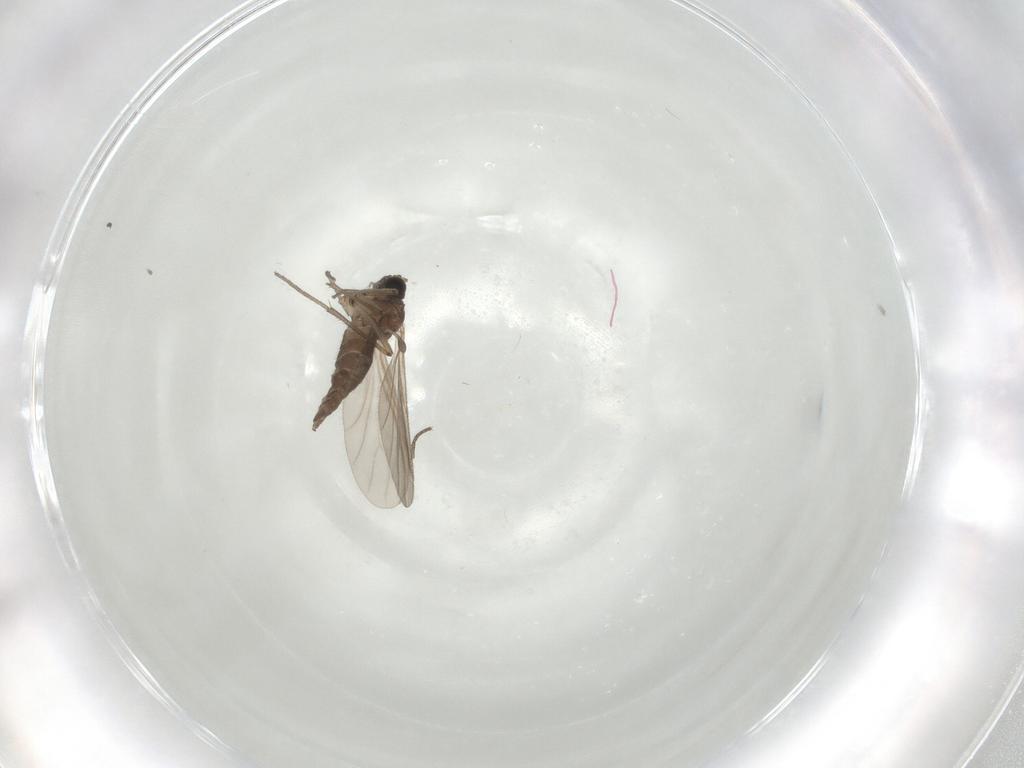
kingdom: Animalia
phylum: Arthropoda
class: Insecta
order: Diptera
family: Sciaridae
